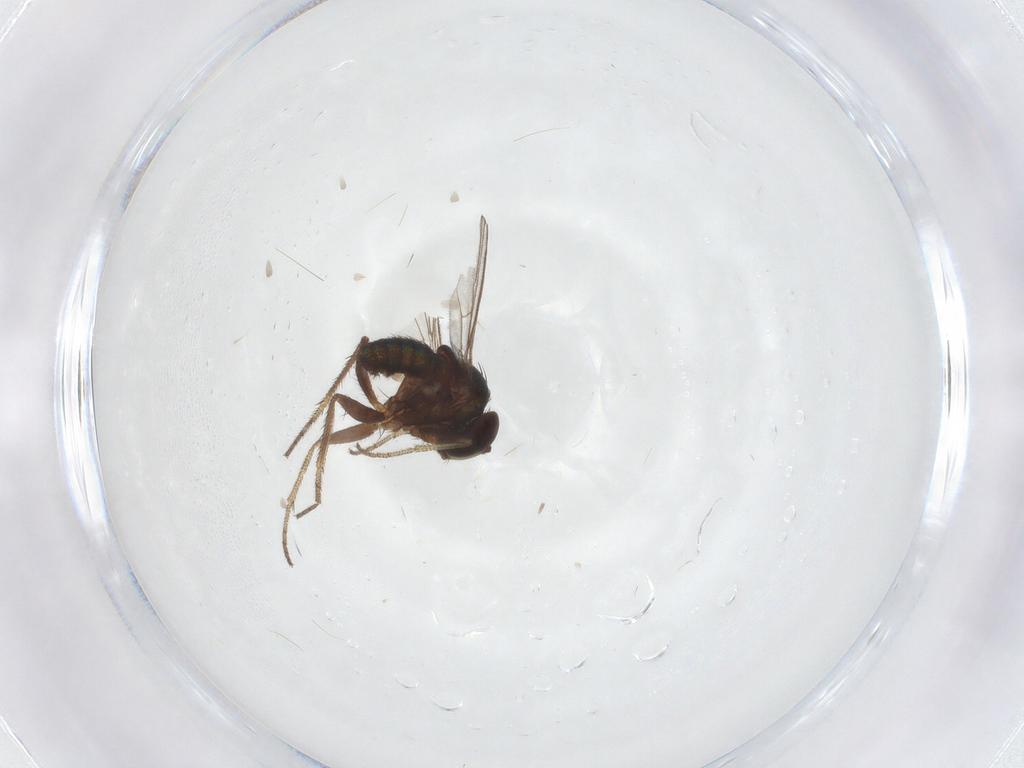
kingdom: Animalia
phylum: Arthropoda
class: Insecta
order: Diptera
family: Cecidomyiidae
